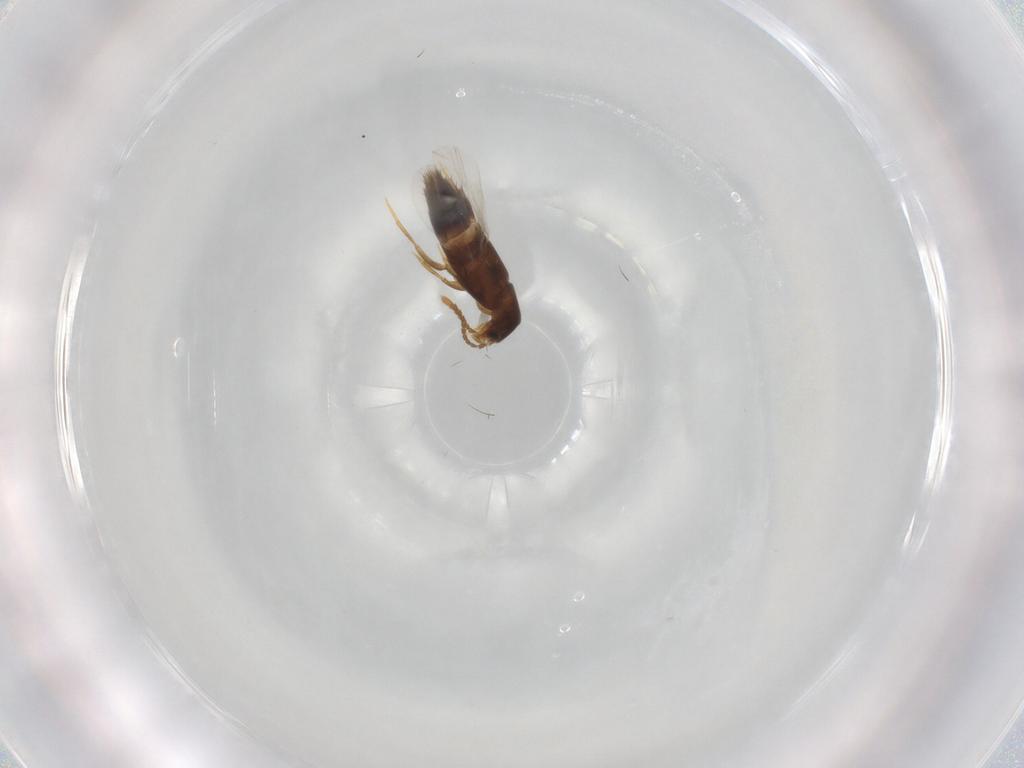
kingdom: Animalia
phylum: Arthropoda
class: Insecta
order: Coleoptera
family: Staphylinidae
